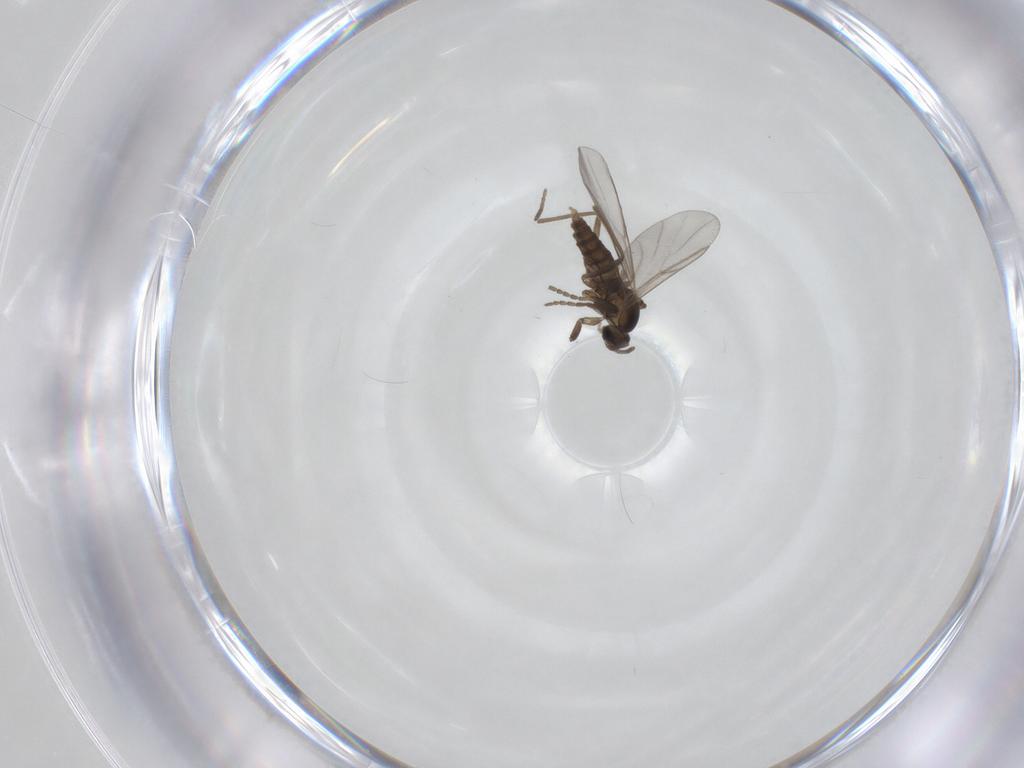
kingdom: Animalia
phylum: Arthropoda
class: Insecta
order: Diptera
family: Cecidomyiidae
